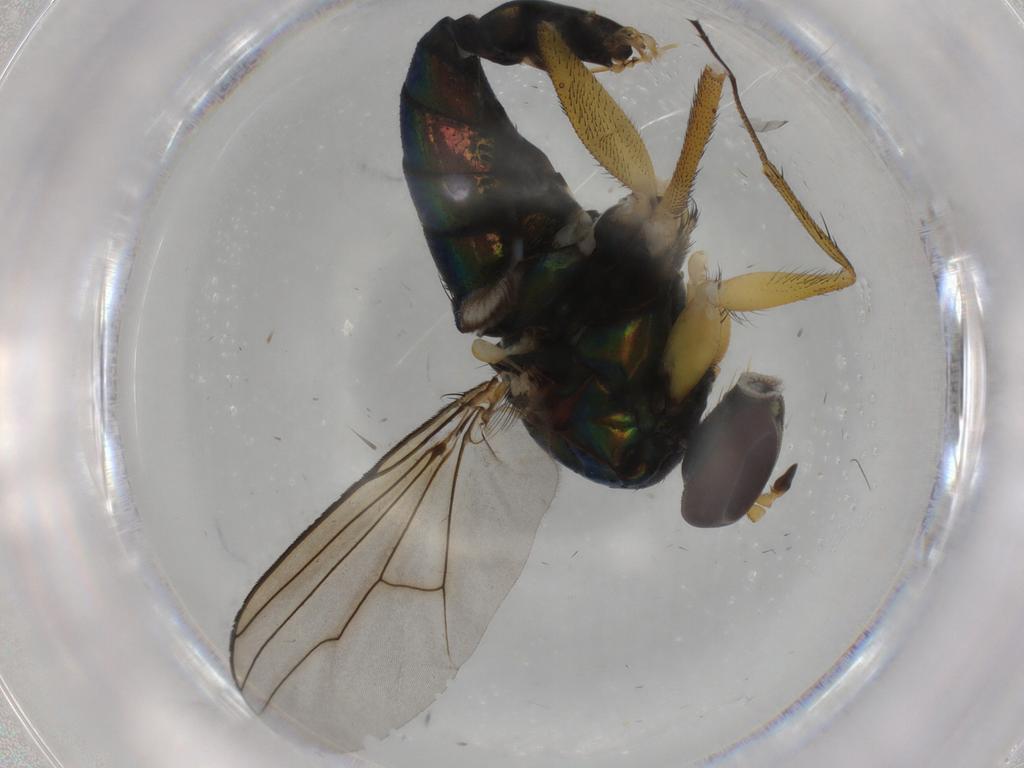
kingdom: Animalia
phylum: Arthropoda
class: Insecta
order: Diptera
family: Dolichopodidae
